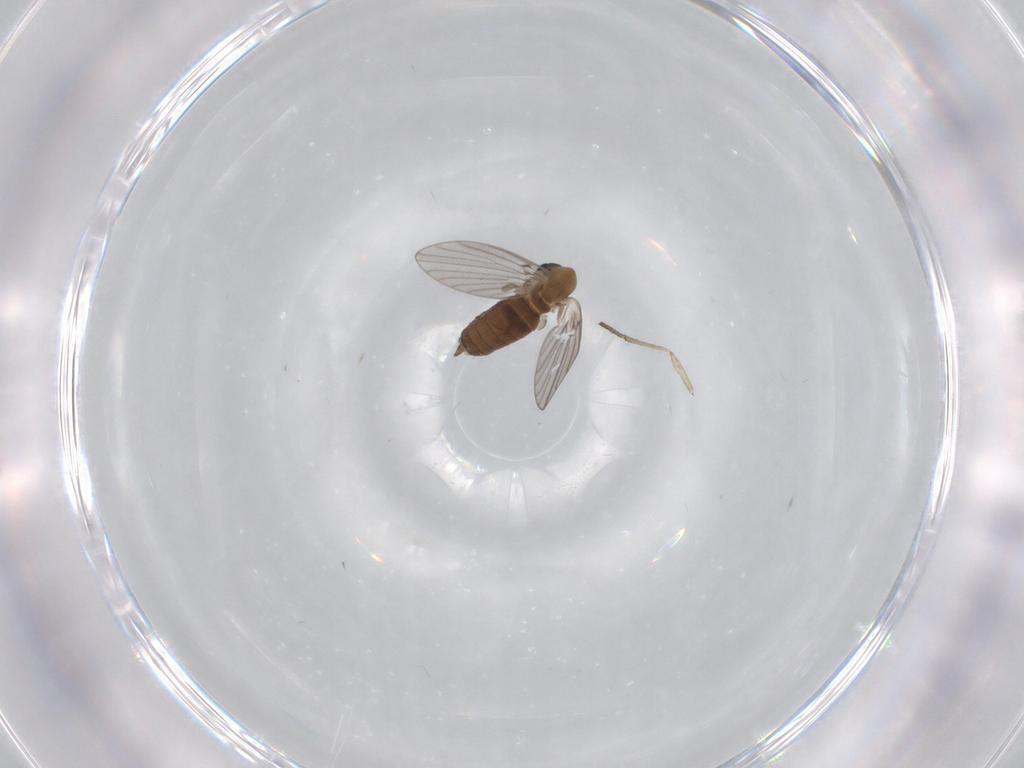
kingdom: Animalia
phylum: Arthropoda
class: Insecta
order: Diptera
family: Psychodidae
